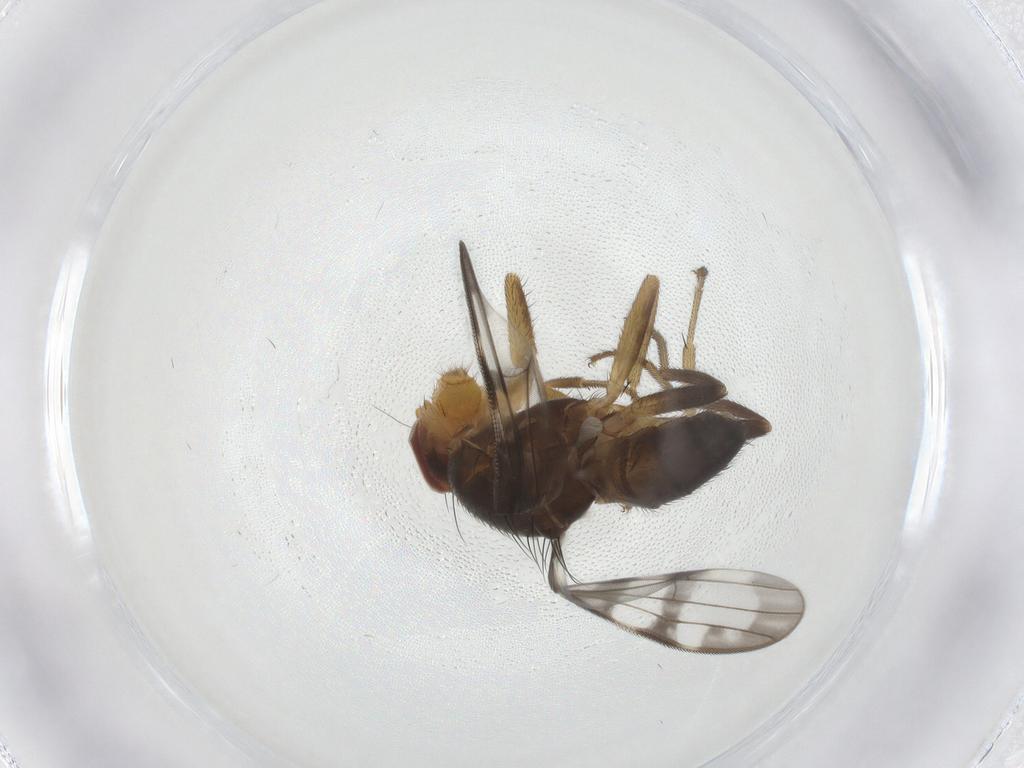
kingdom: Animalia
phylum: Arthropoda
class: Insecta
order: Diptera
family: Ulidiidae
